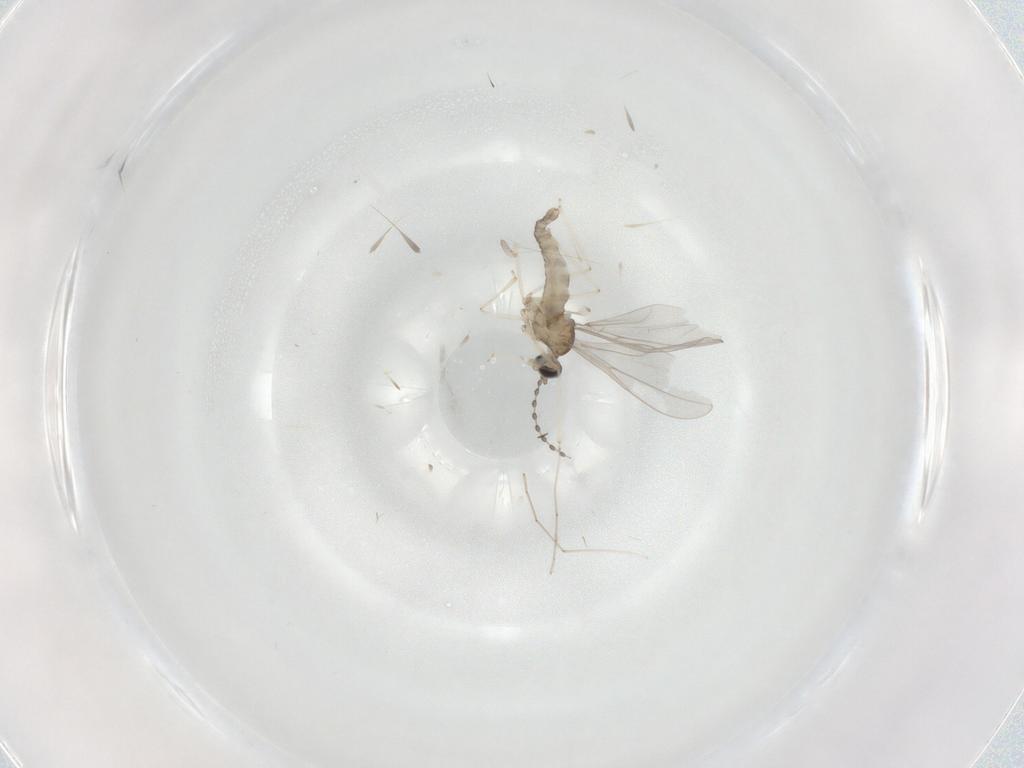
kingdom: Animalia
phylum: Arthropoda
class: Insecta
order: Diptera
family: Cecidomyiidae
